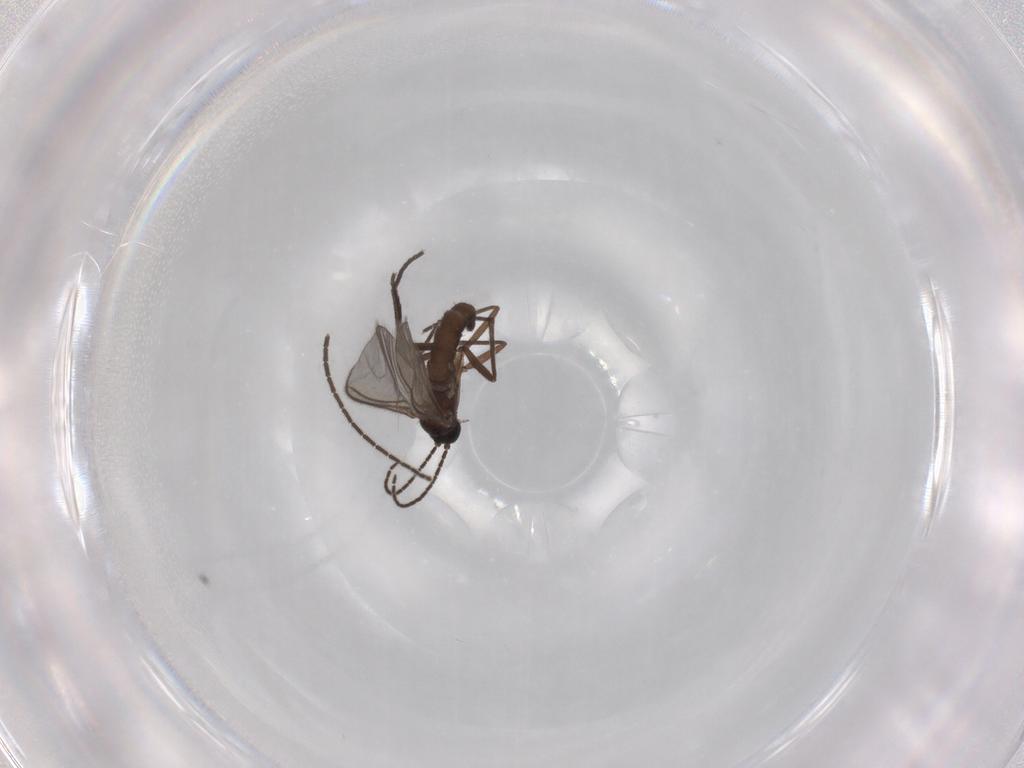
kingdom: Animalia
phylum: Arthropoda
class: Insecta
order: Diptera
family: Sciaridae
